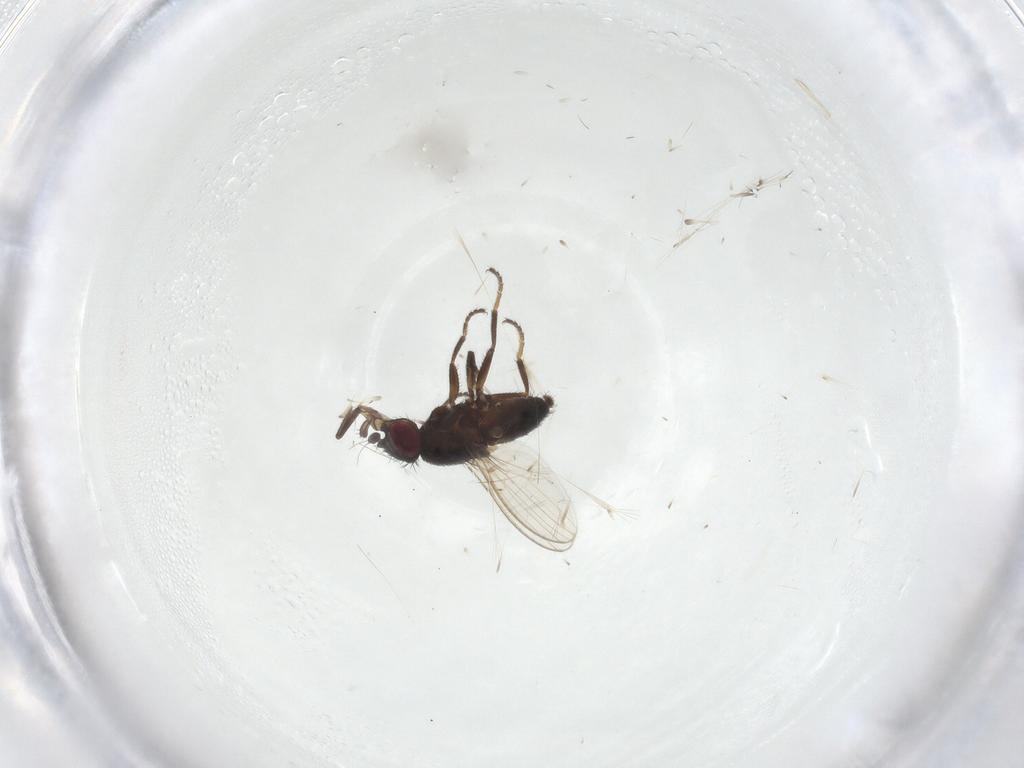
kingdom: Animalia
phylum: Arthropoda
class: Insecta
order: Diptera
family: Milichiidae
